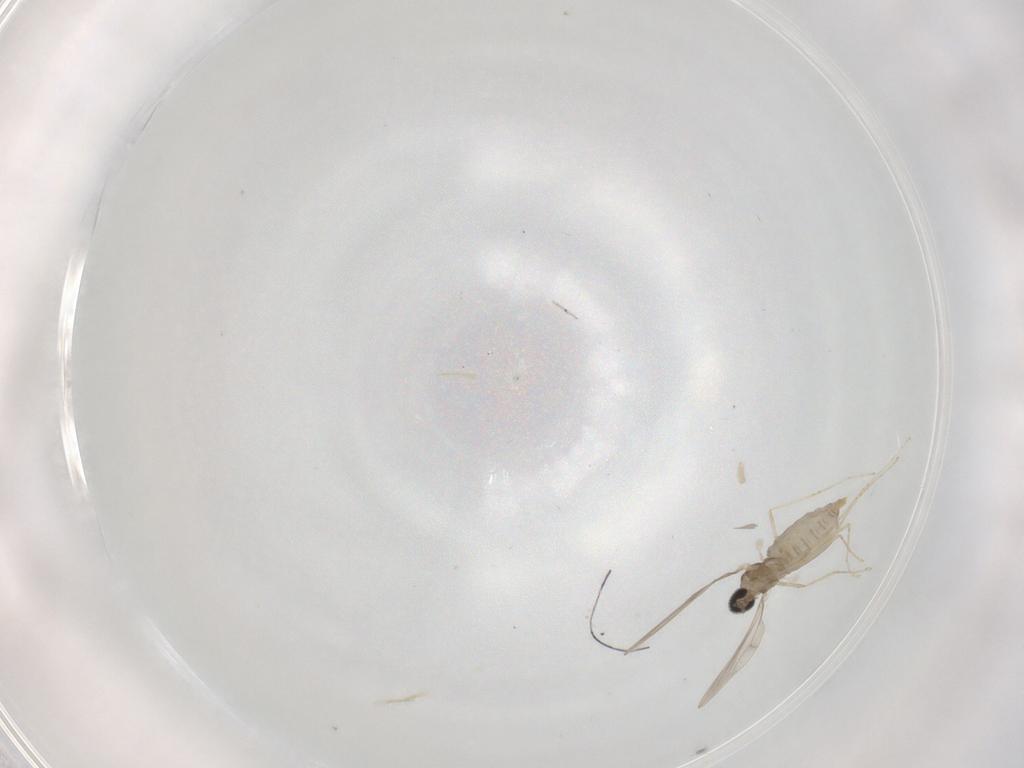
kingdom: Animalia
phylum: Arthropoda
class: Insecta
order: Diptera
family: Cecidomyiidae
